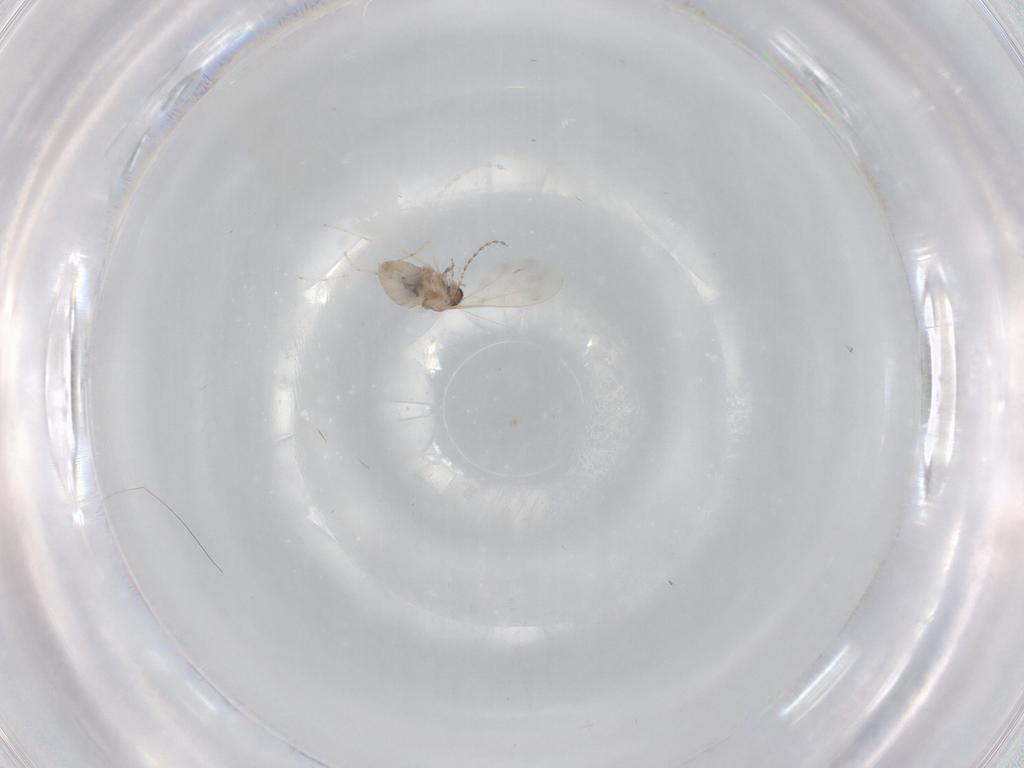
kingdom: Animalia
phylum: Arthropoda
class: Insecta
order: Diptera
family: Cecidomyiidae
